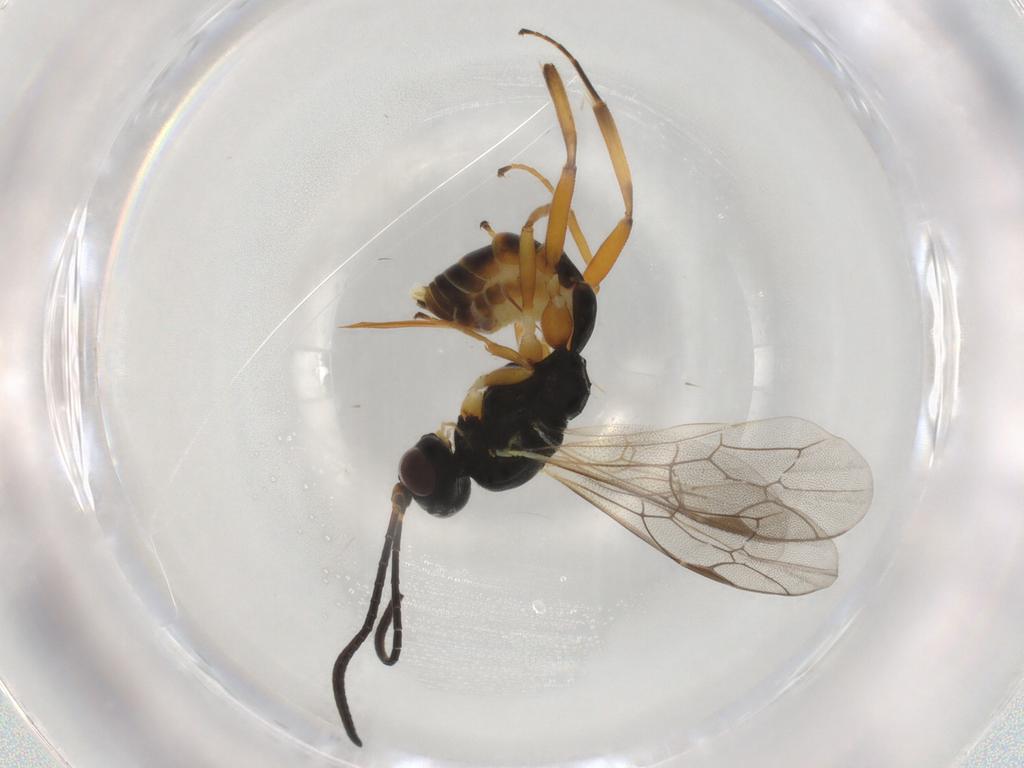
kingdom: Animalia
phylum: Arthropoda
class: Insecta
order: Hymenoptera
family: Ichneumonidae
